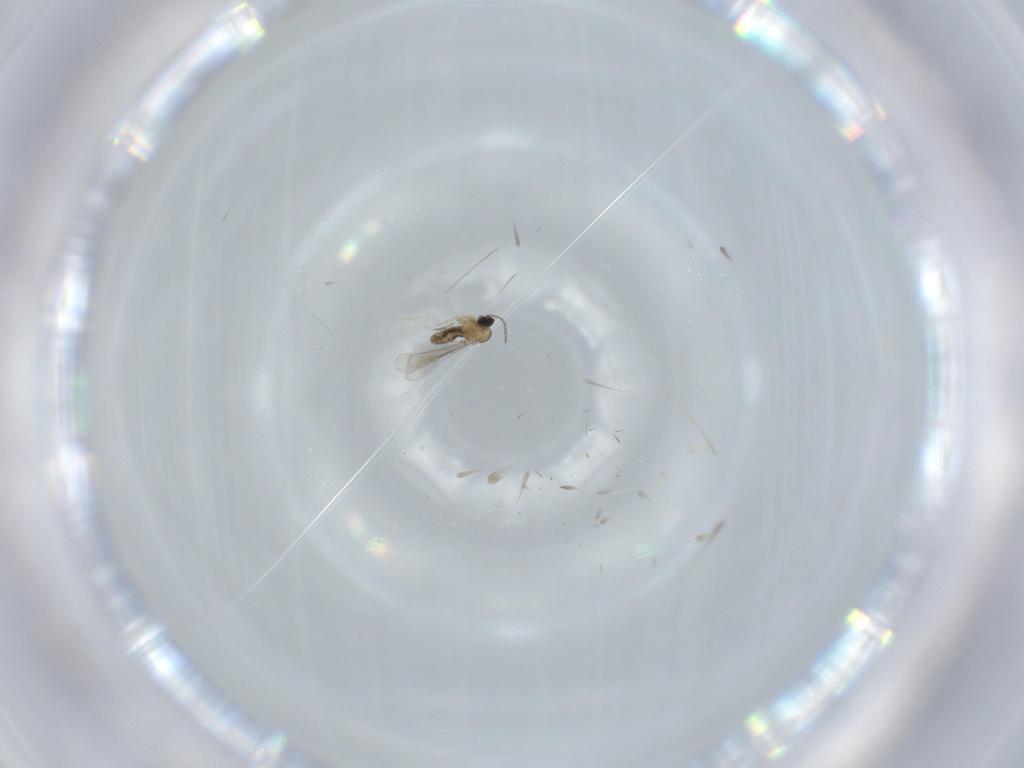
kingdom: Animalia
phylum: Arthropoda
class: Insecta
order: Diptera
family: Cecidomyiidae
